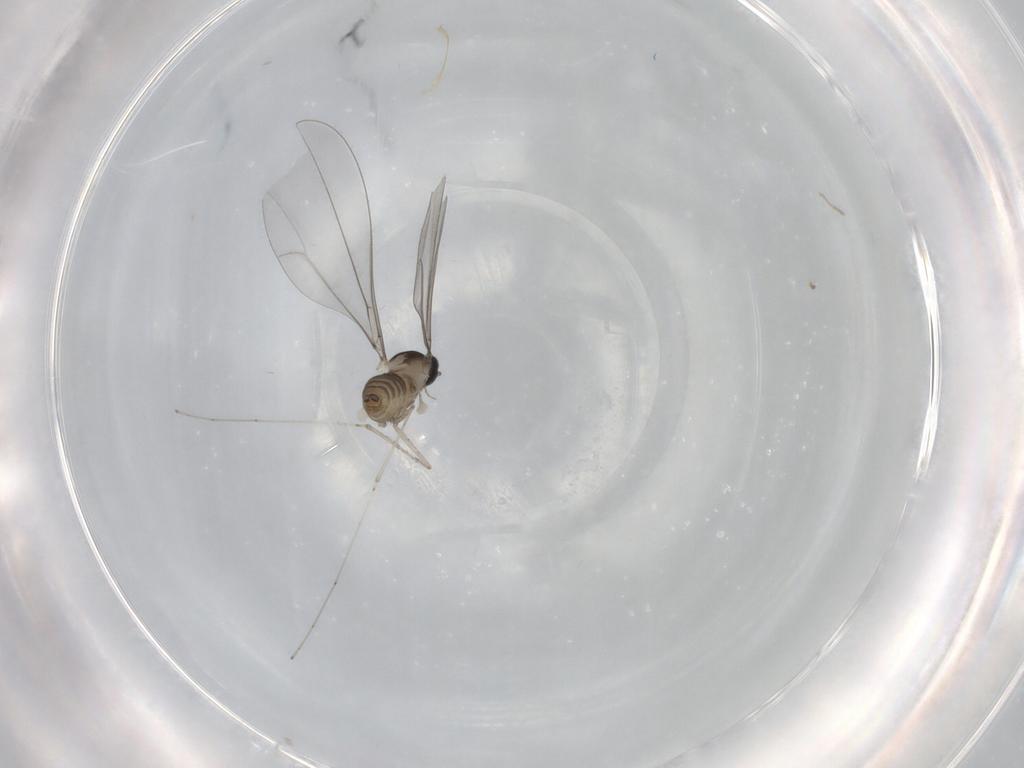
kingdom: Animalia
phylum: Arthropoda
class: Insecta
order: Diptera
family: Cecidomyiidae
